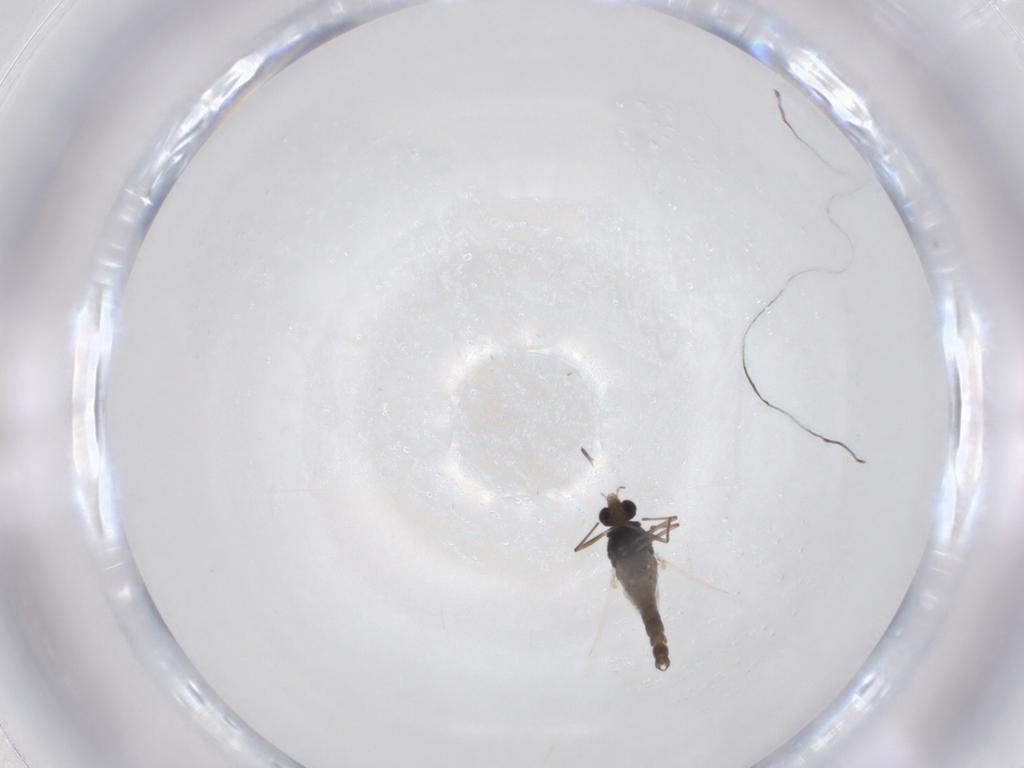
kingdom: Animalia
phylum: Arthropoda
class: Insecta
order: Diptera
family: Chironomidae
